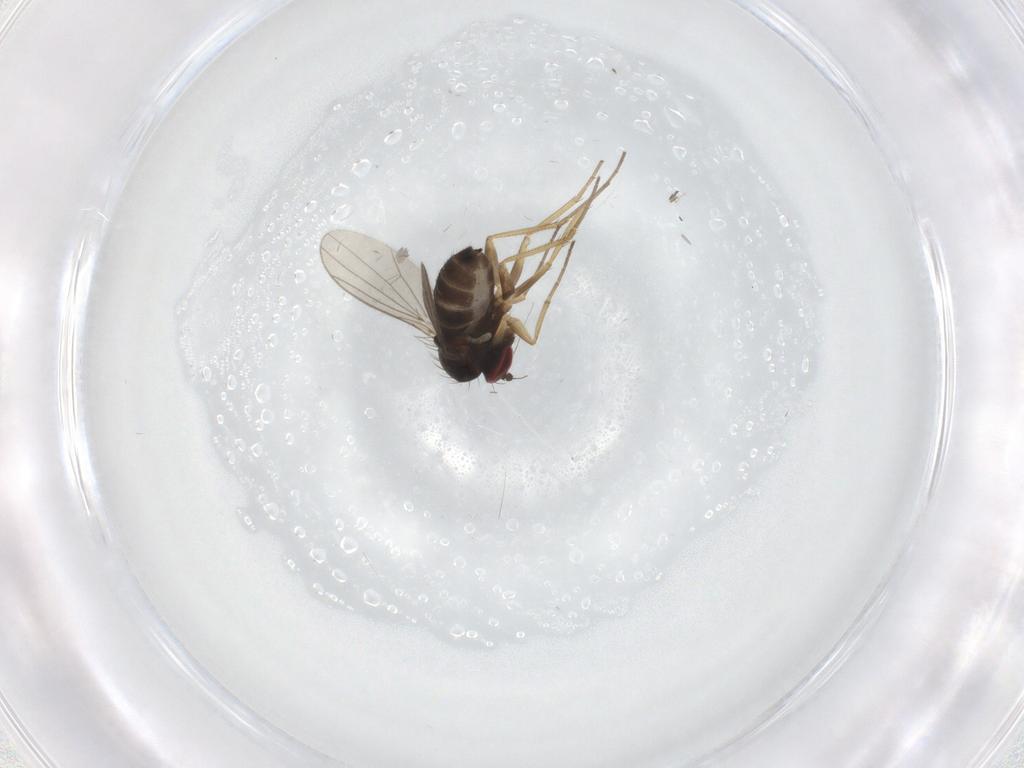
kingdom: Animalia
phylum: Arthropoda
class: Insecta
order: Diptera
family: Dolichopodidae
